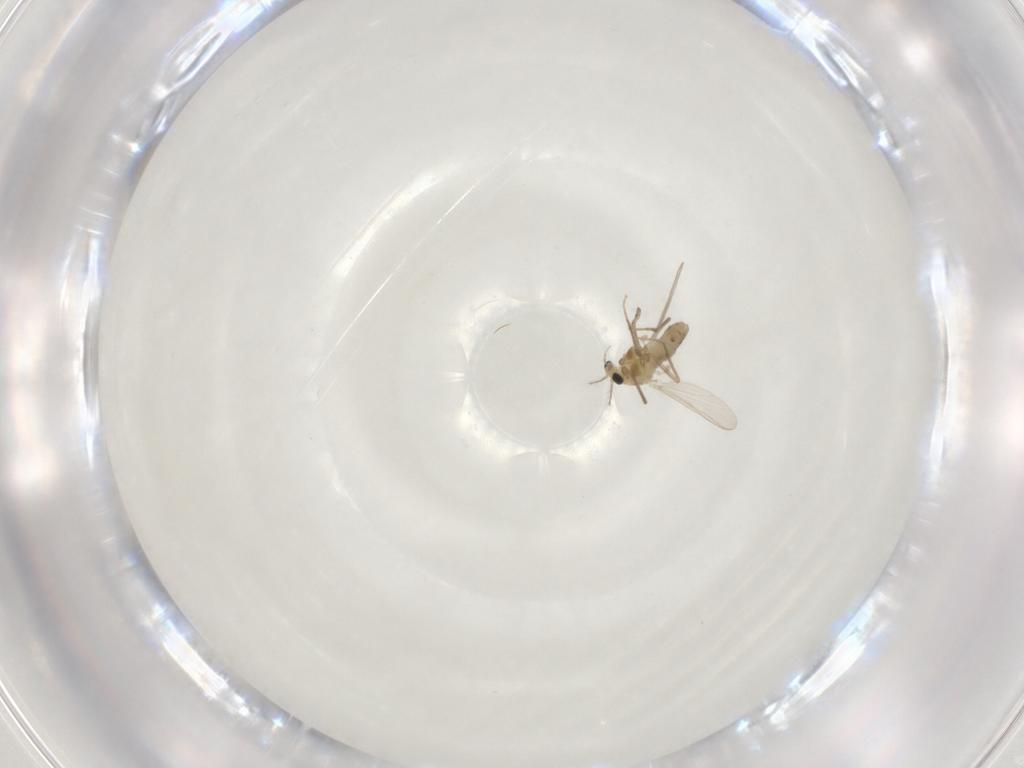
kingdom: Animalia
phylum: Arthropoda
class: Insecta
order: Diptera
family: Chironomidae
